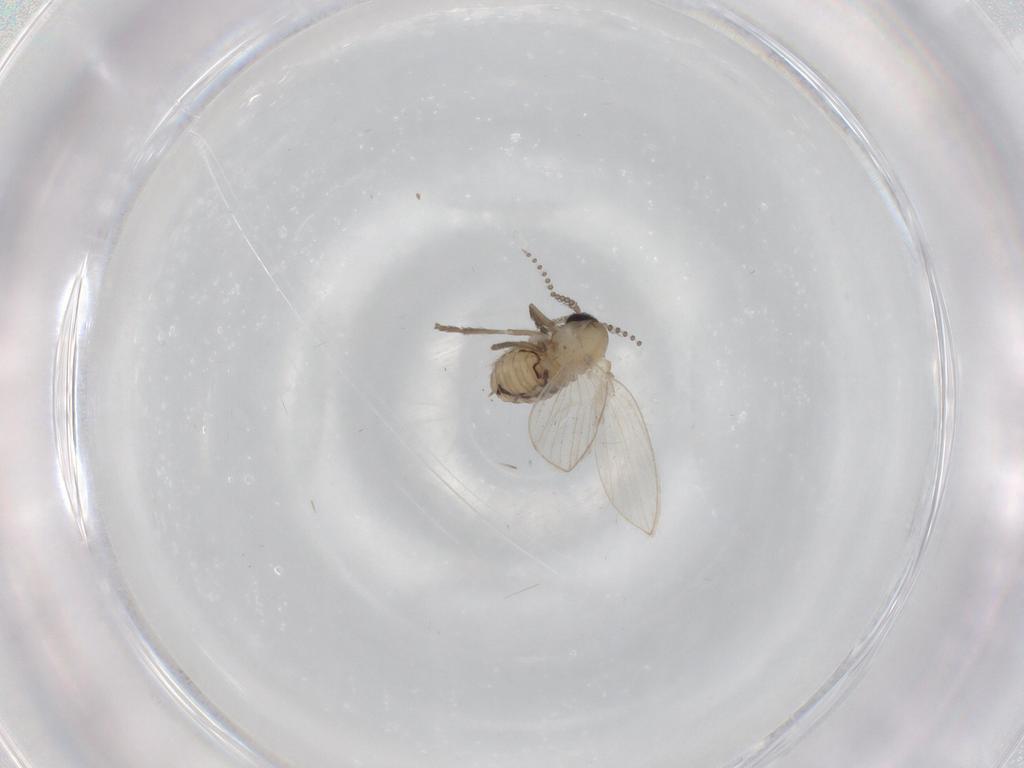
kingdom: Animalia
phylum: Arthropoda
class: Insecta
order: Diptera
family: Psychodidae
